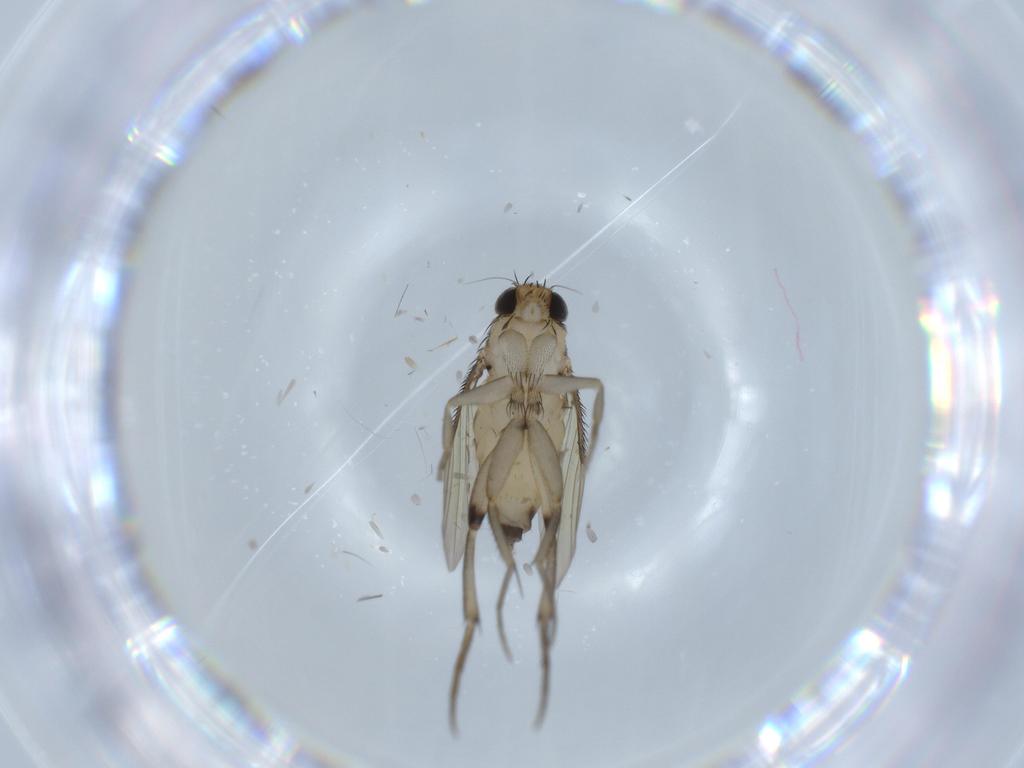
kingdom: Animalia
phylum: Arthropoda
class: Insecta
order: Diptera
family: Phoridae
